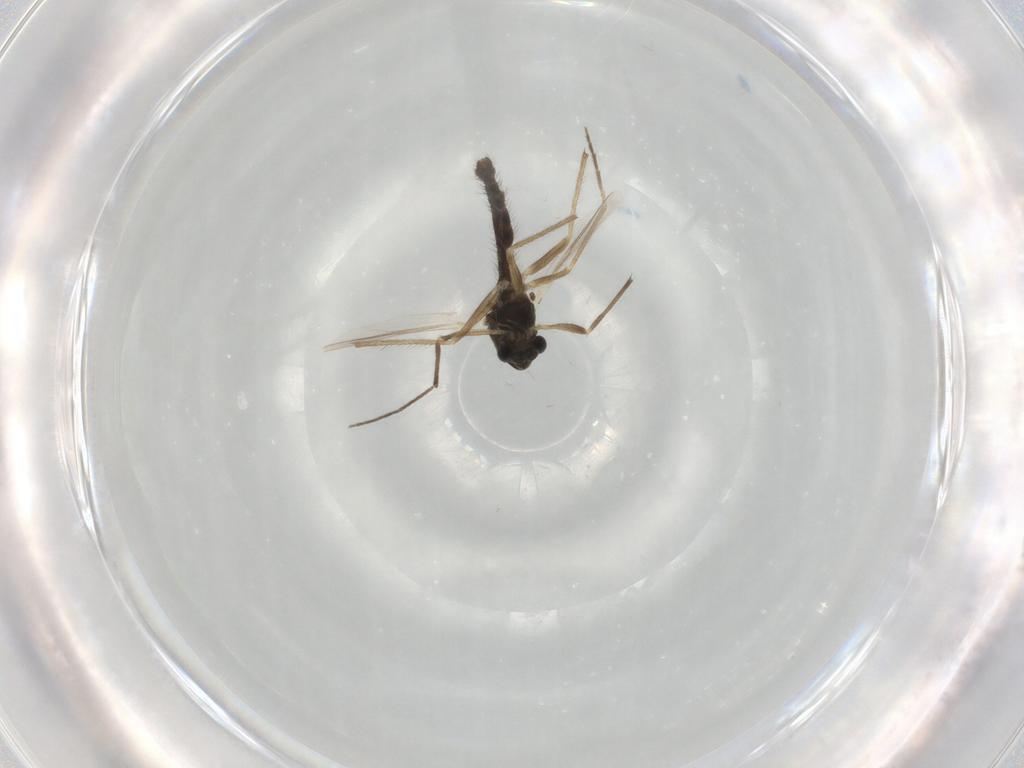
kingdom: Animalia
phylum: Arthropoda
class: Insecta
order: Diptera
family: Chironomidae
